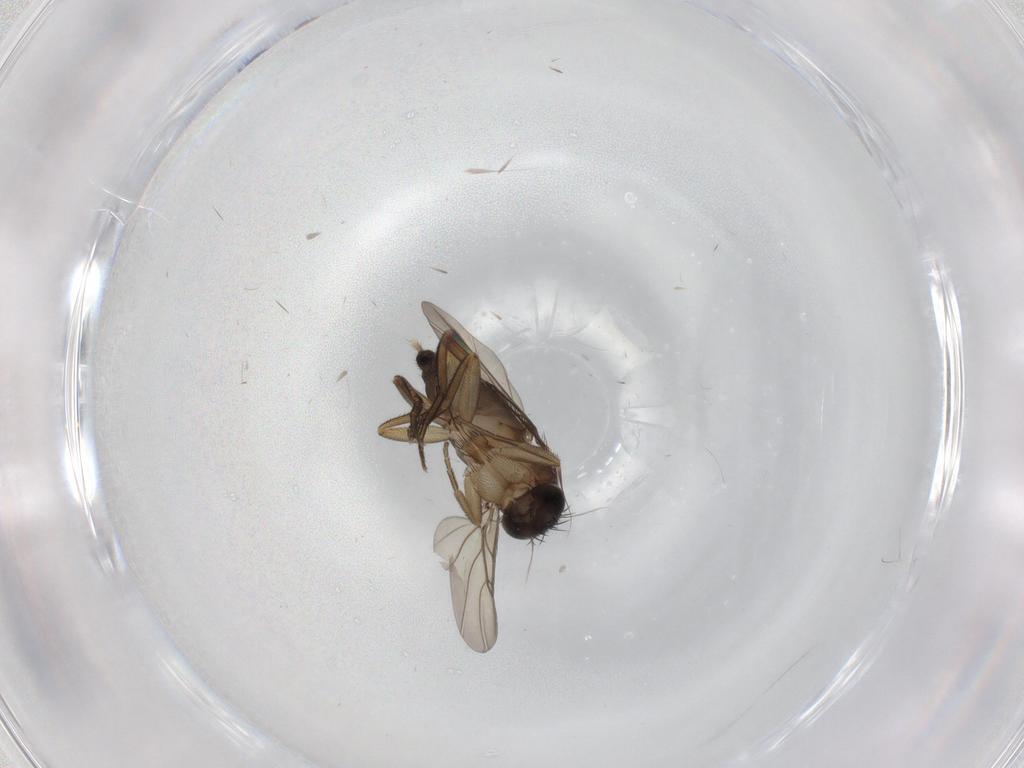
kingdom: Animalia
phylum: Arthropoda
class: Insecta
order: Diptera
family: Phoridae
